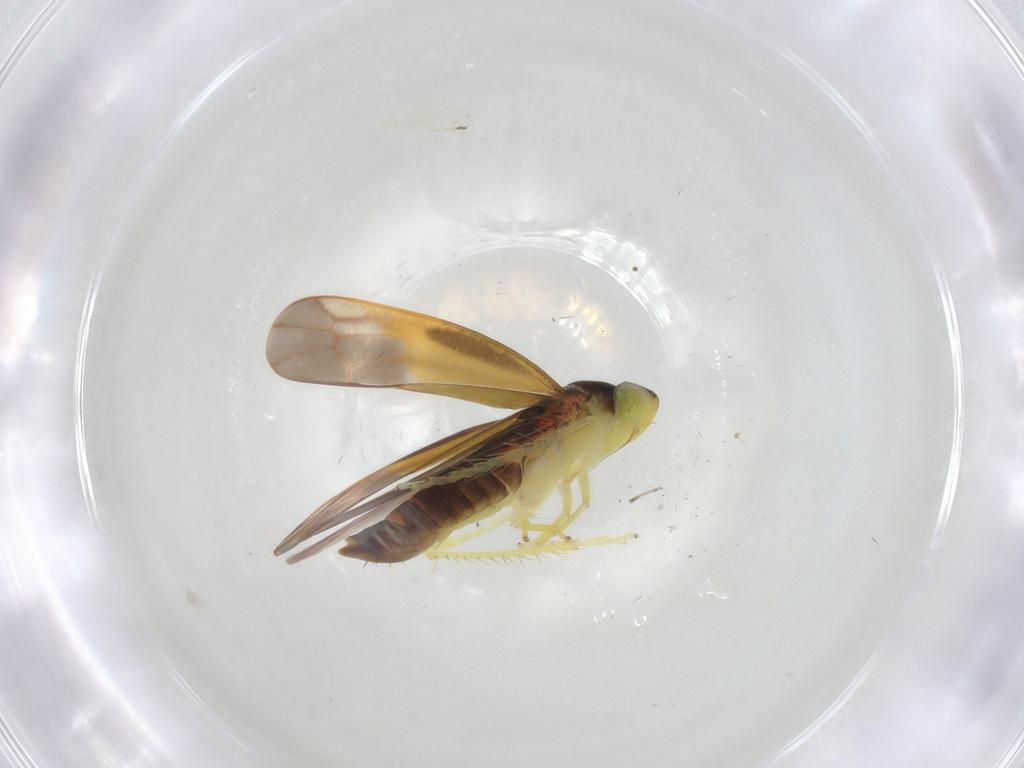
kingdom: Animalia
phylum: Arthropoda
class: Insecta
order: Hemiptera
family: Cicadellidae
